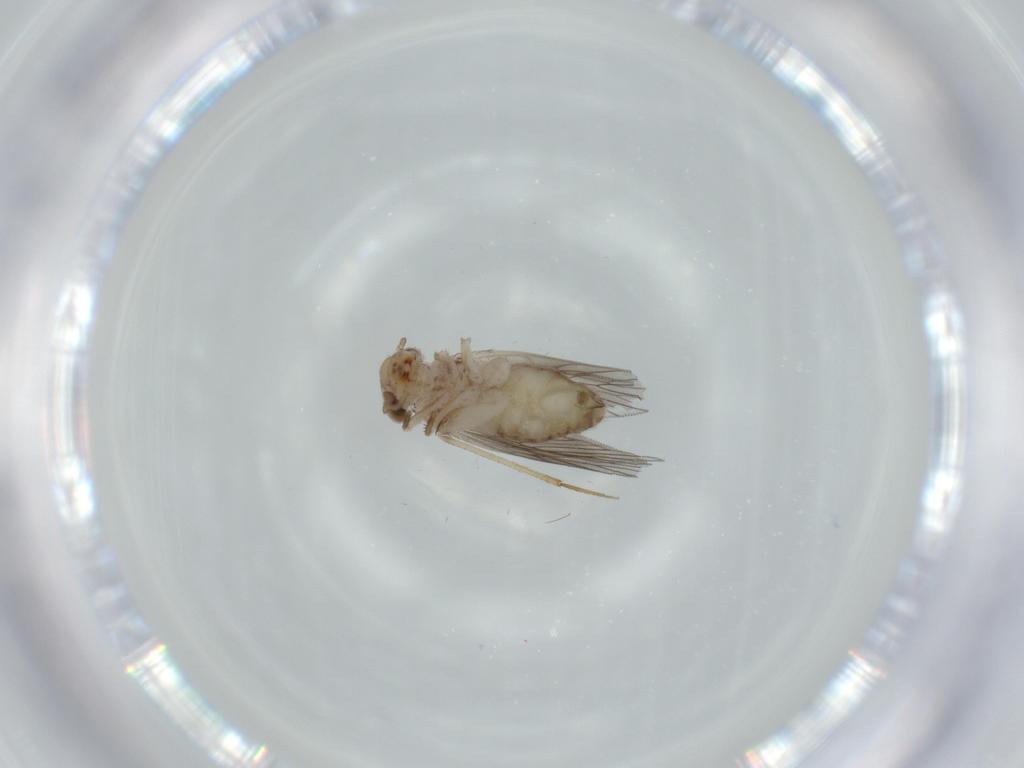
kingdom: Animalia
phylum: Arthropoda
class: Insecta
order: Psocodea
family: Lepidopsocidae
